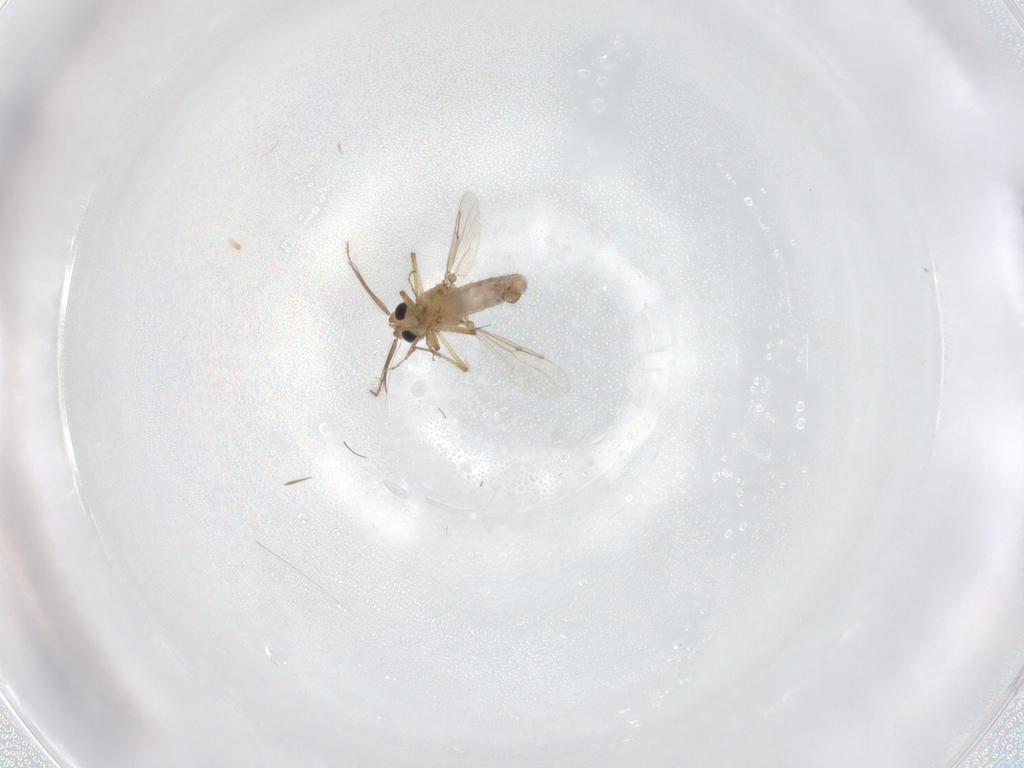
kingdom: Animalia
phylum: Arthropoda
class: Insecta
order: Diptera
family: Ceratopogonidae
